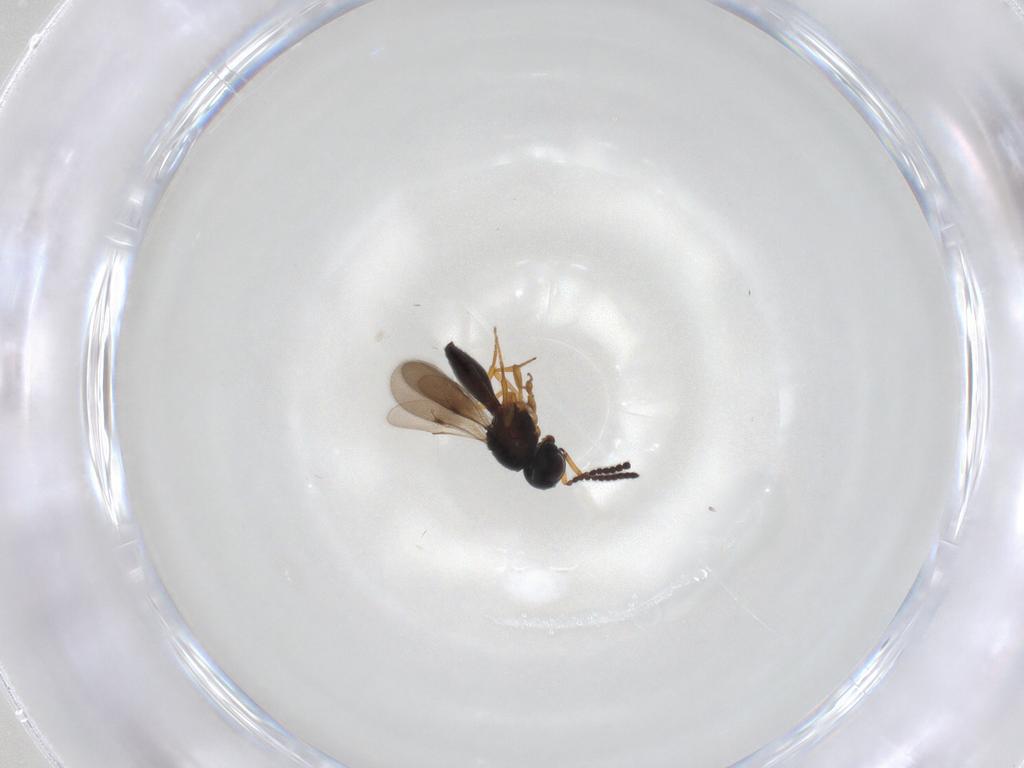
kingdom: Animalia
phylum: Arthropoda
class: Insecta
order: Hymenoptera
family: Scelionidae
